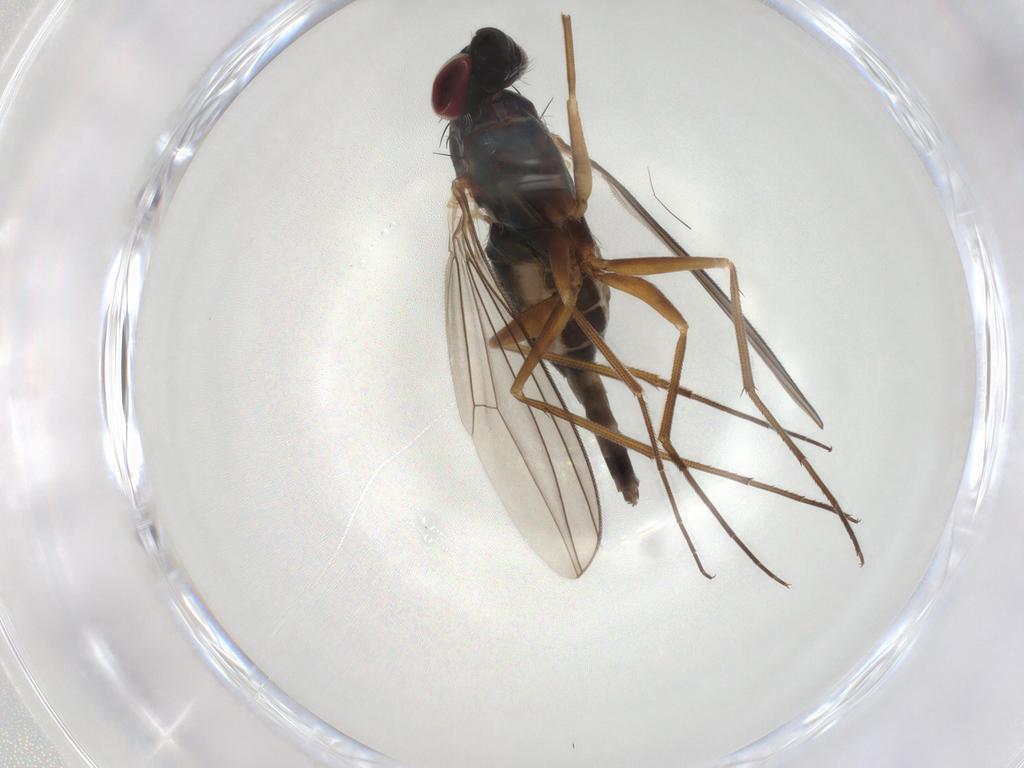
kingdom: Animalia
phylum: Arthropoda
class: Insecta
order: Diptera
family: Dolichopodidae
